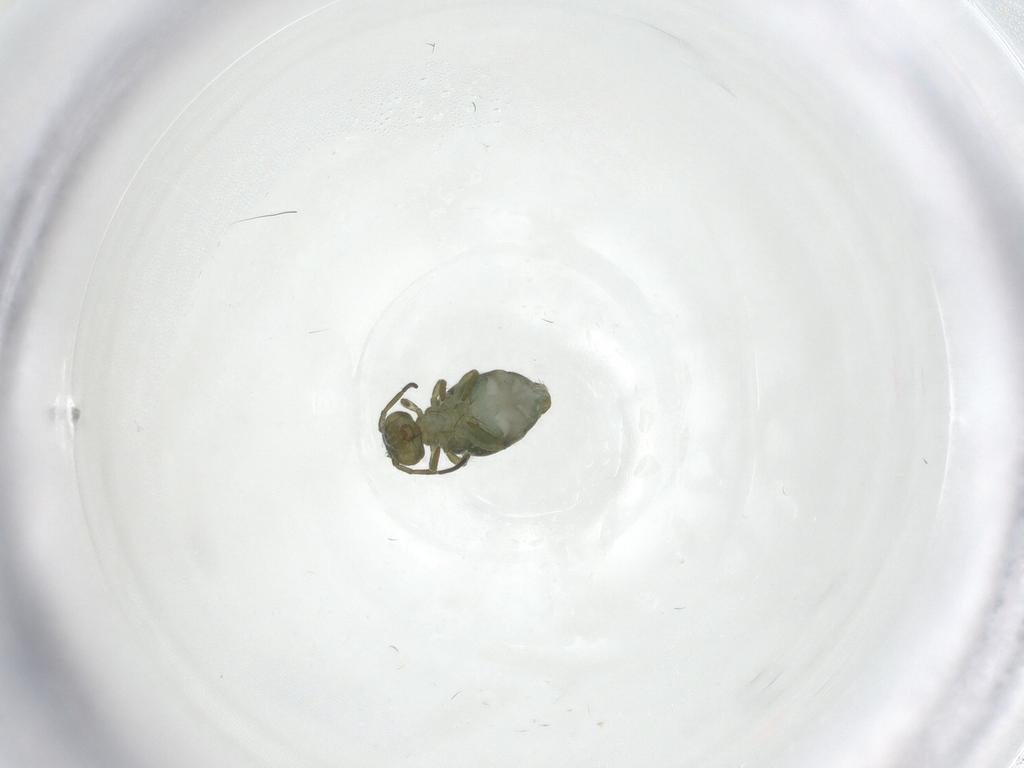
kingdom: Animalia
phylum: Arthropoda
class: Collembola
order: Symphypleona
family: Sminthuridae
